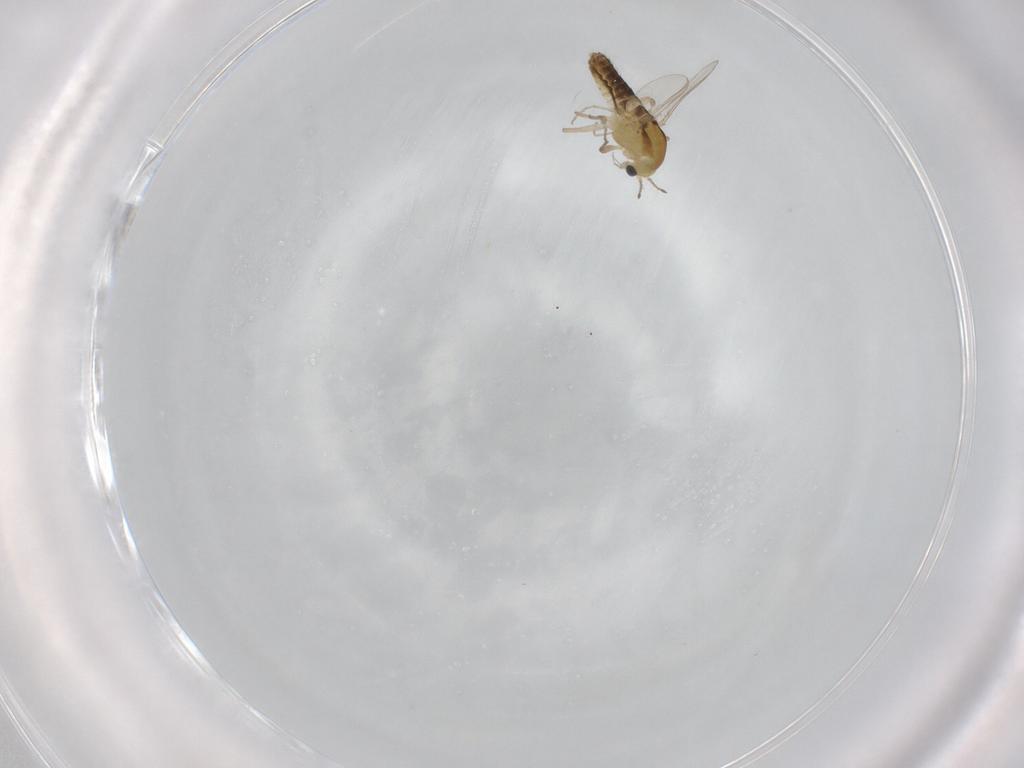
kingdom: Animalia
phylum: Arthropoda
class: Insecta
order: Diptera
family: Chironomidae
